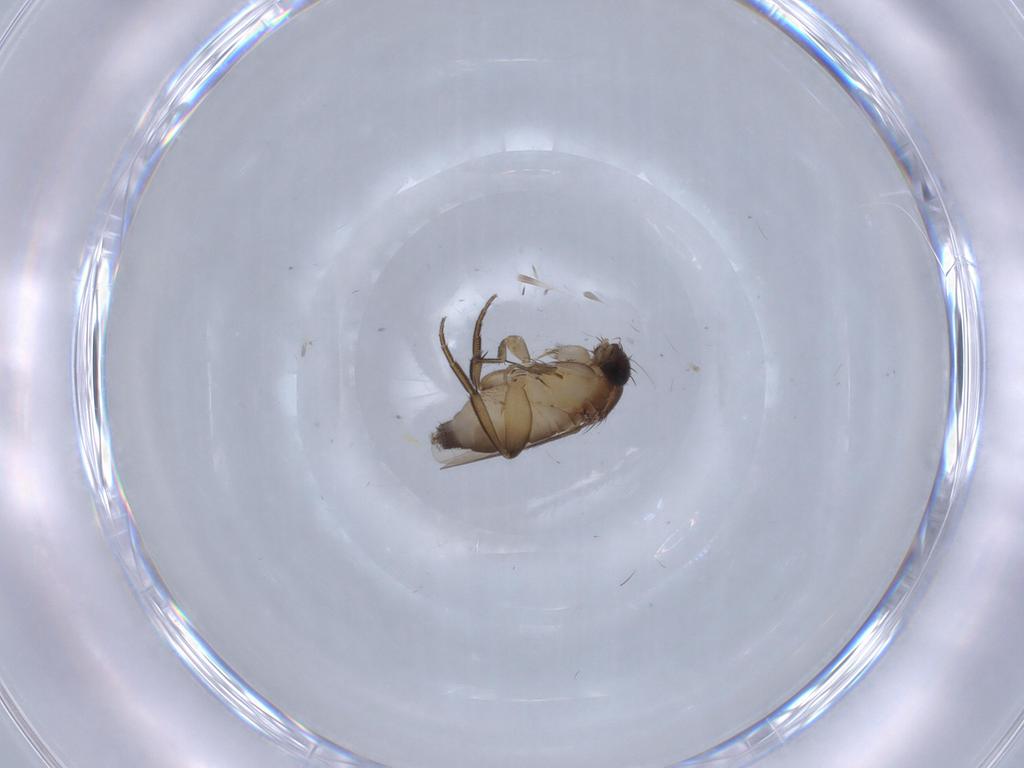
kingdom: Animalia
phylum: Arthropoda
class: Insecta
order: Diptera
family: Phoridae
